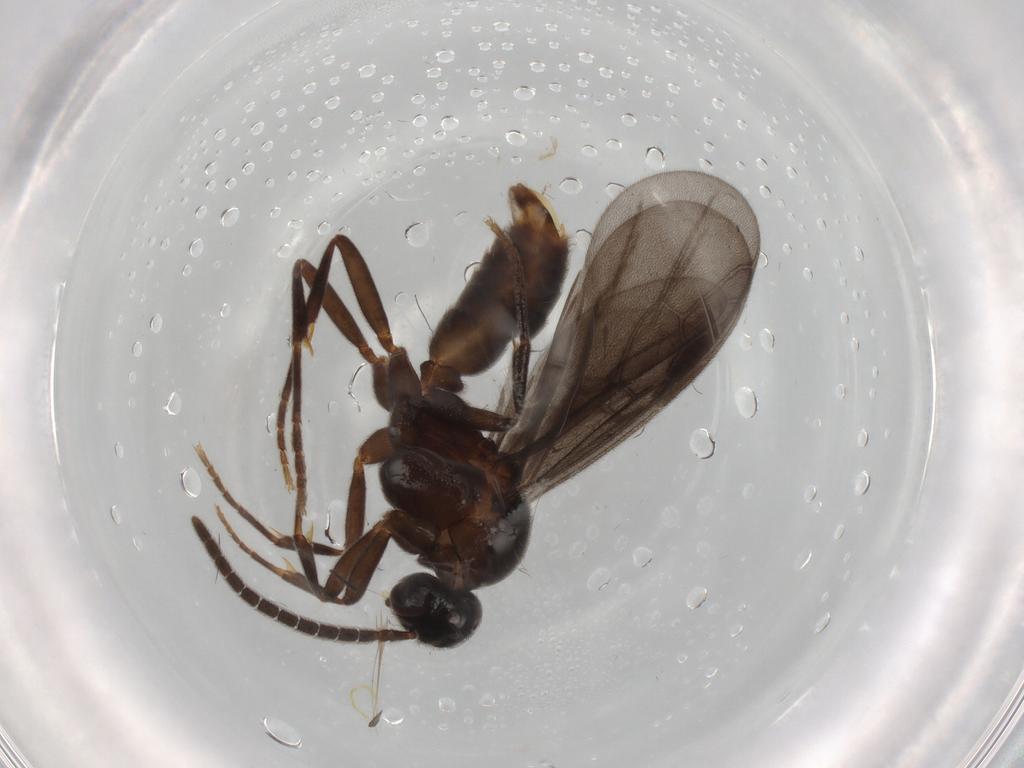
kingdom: Animalia
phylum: Arthropoda
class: Insecta
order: Hymenoptera
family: Formicidae
